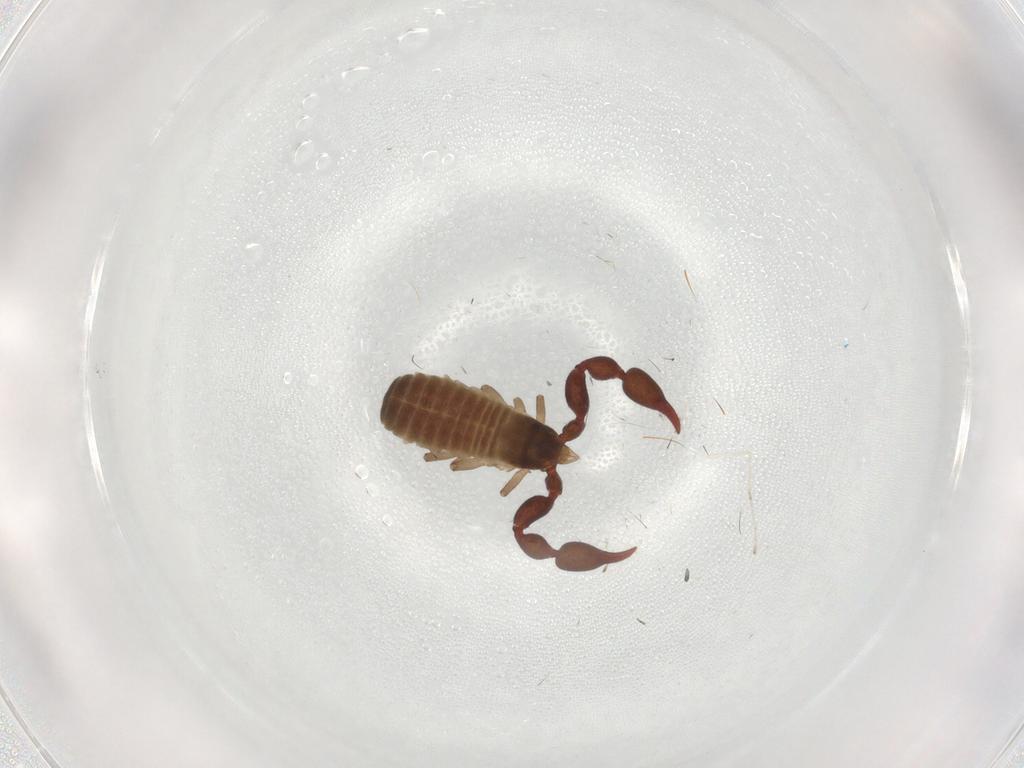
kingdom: Animalia
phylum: Arthropoda
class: Arachnida
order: Pseudoscorpiones
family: Chernetidae
